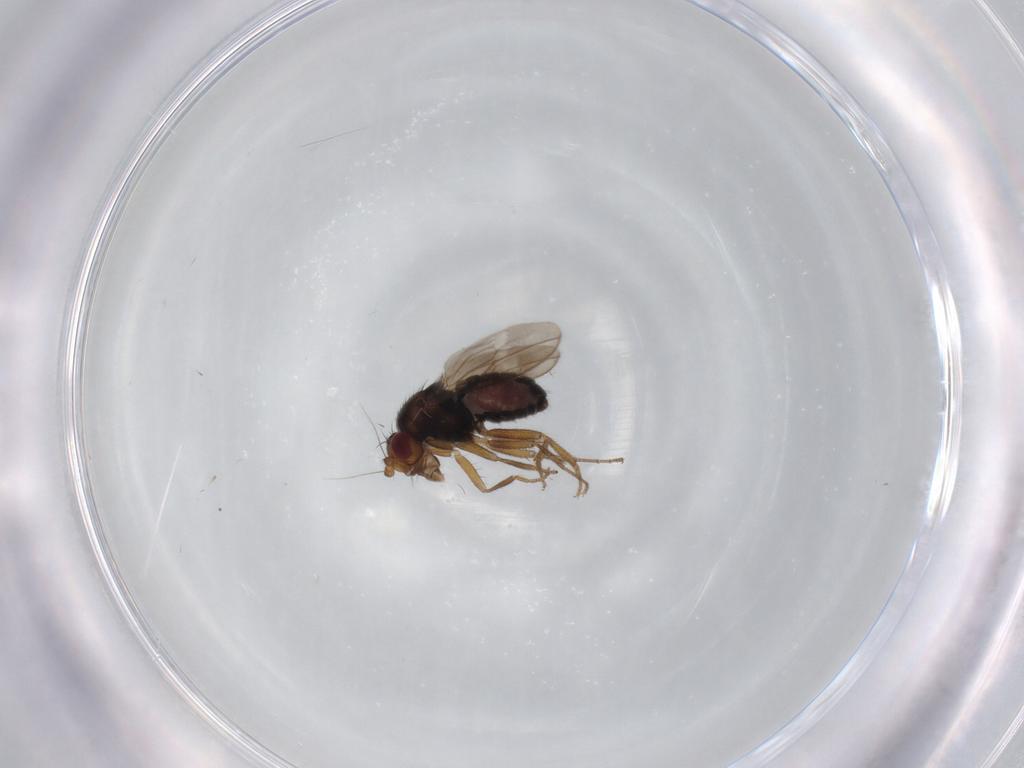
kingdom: Animalia
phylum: Arthropoda
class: Insecta
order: Diptera
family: Sphaeroceridae
